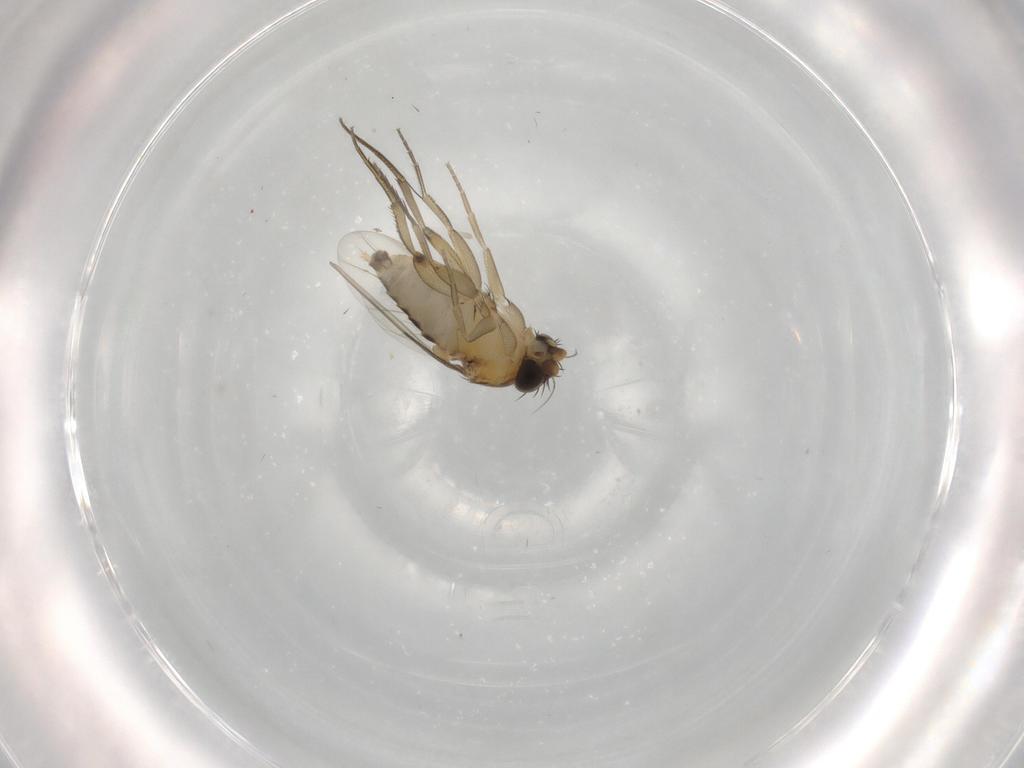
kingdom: Animalia
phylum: Arthropoda
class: Insecta
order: Diptera
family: Phoridae
